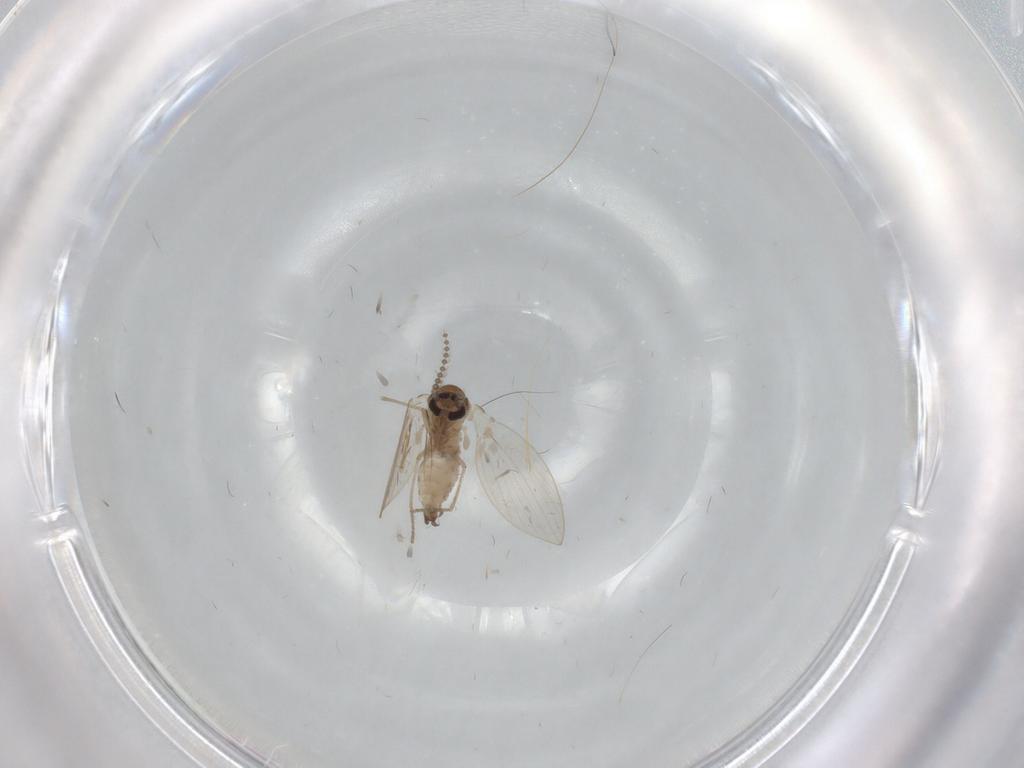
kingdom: Animalia
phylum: Arthropoda
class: Insecta
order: Diptera
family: Psychodidae
